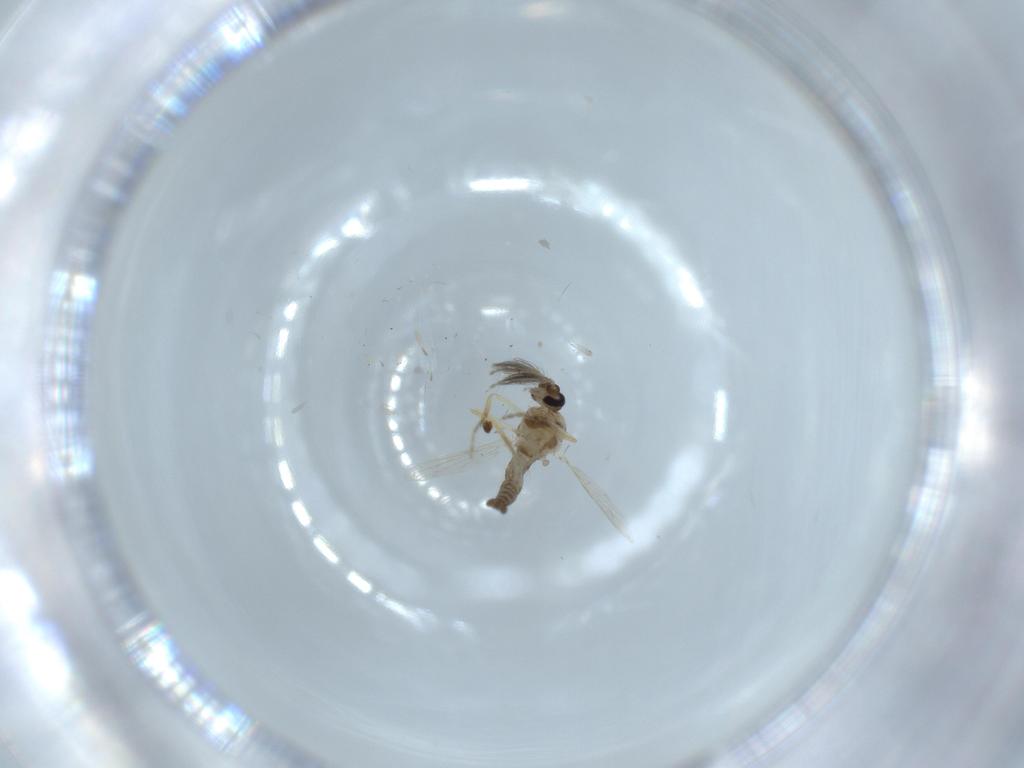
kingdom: Animalia
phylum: Arthropoda
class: Insecta
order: Diptera
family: Ceratopogonidae
